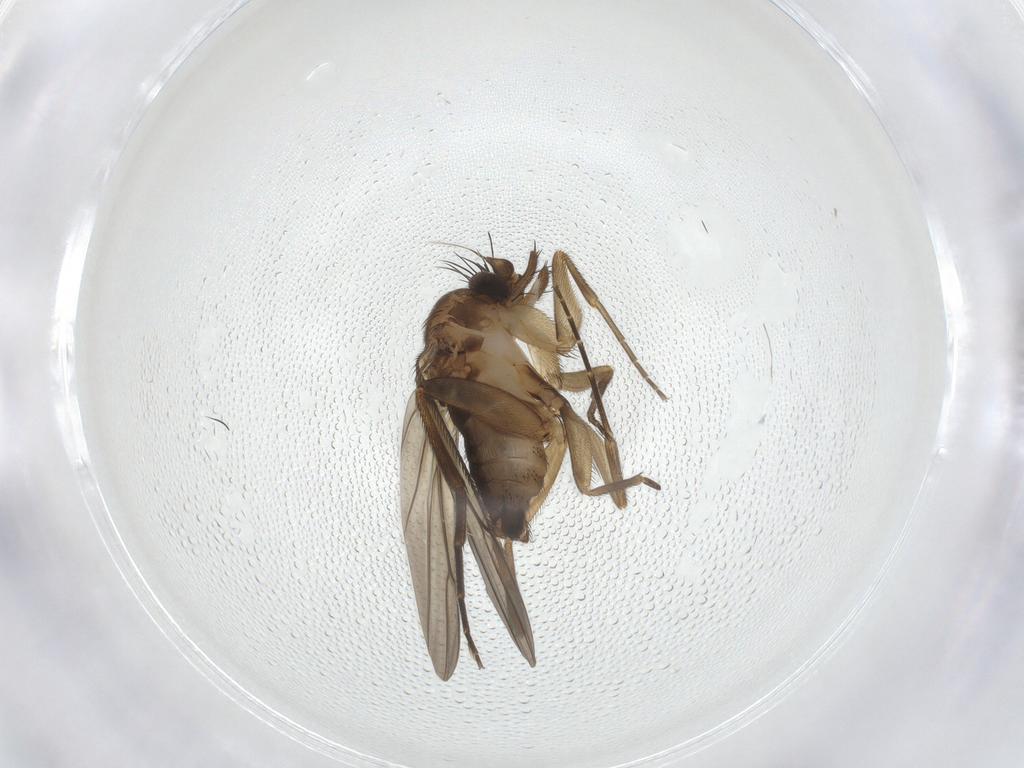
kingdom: Animalia
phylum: Arthropoda
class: Insecta
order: Diptera
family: Phoridae
